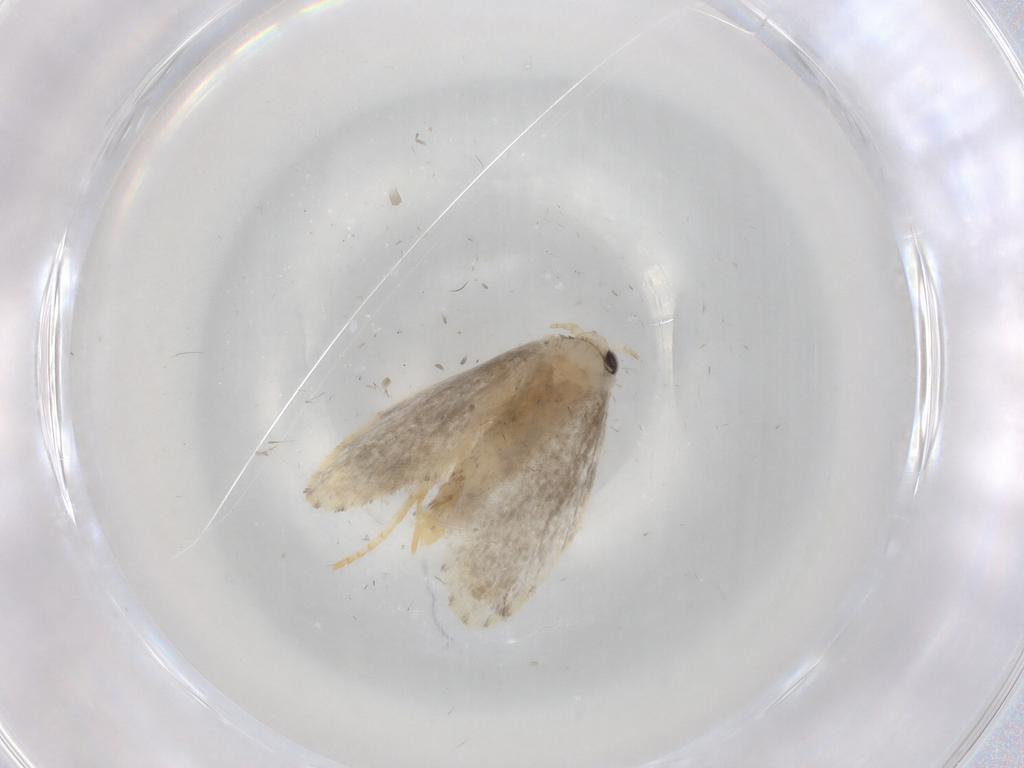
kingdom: Animalia
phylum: Arthropoda
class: Insecta
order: Lepidoptera
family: Psychidae
